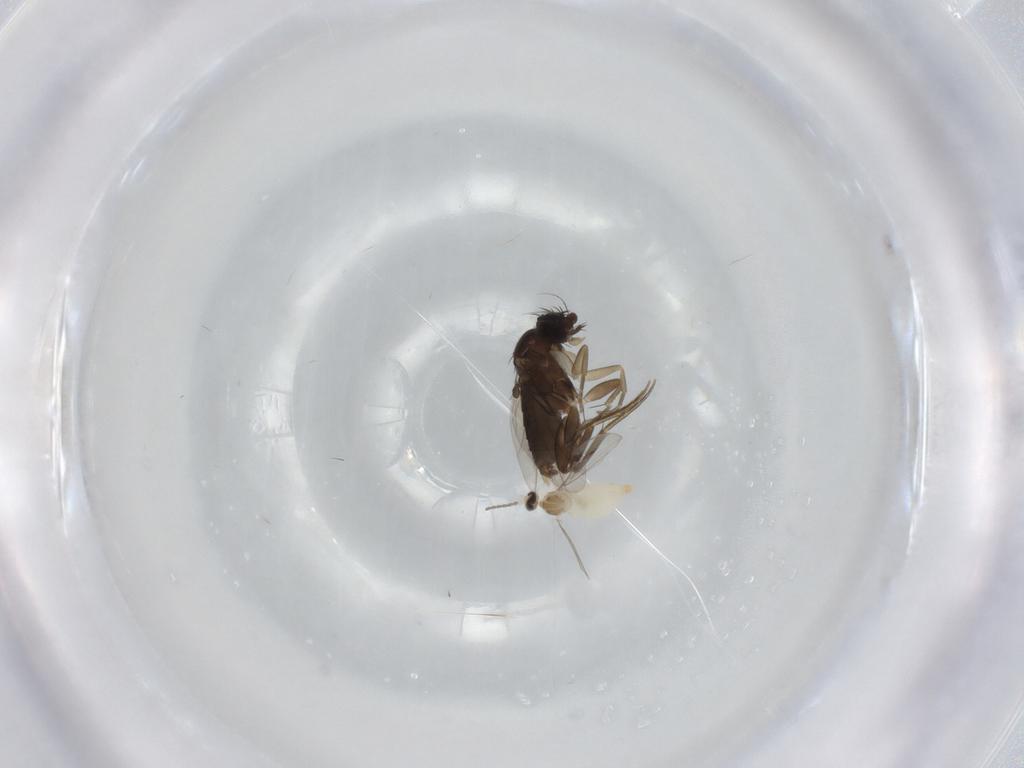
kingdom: Animalia
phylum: Arthropoda
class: Insecta
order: Diptera
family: Cecidomyiidae
